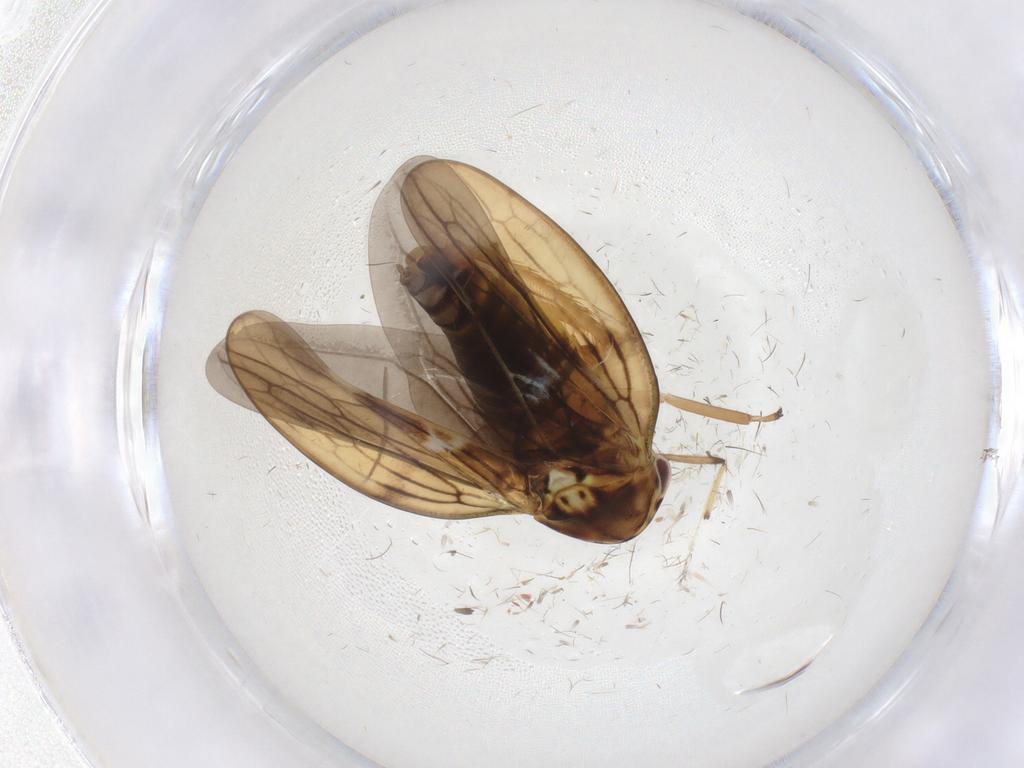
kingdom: Animalia
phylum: Arthropoda
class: Insecta
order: Hemiptera
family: Cicadellidae
